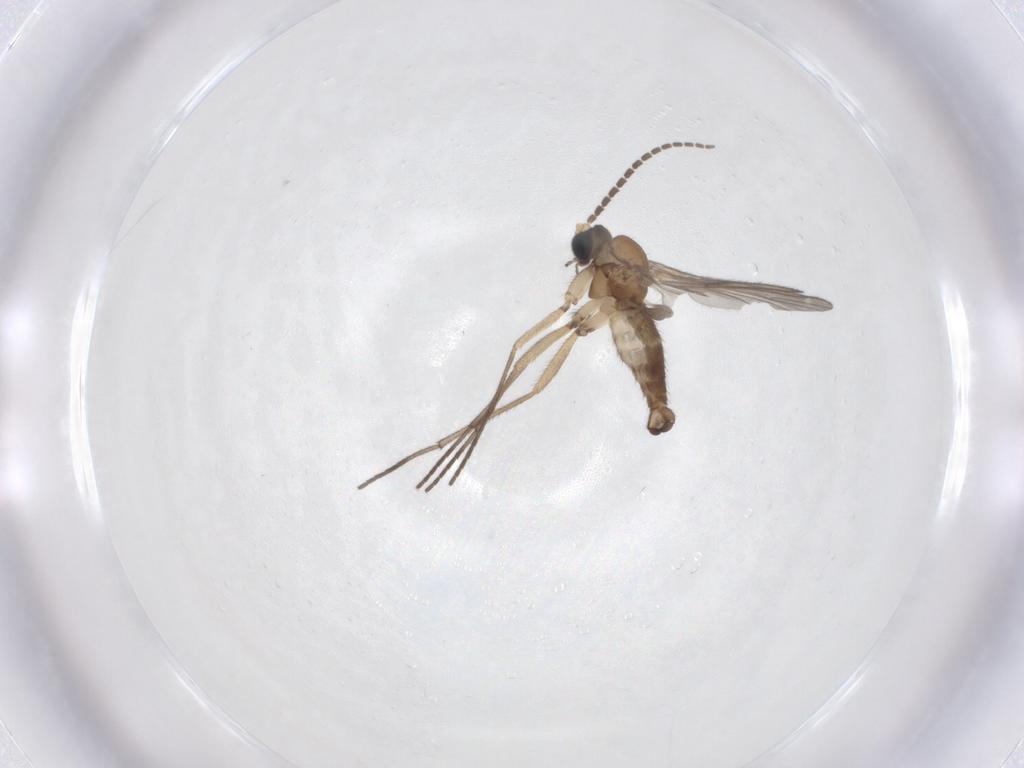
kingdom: Animalia
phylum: Arthropoda
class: Insecta
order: Diptera
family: Sciaridae
